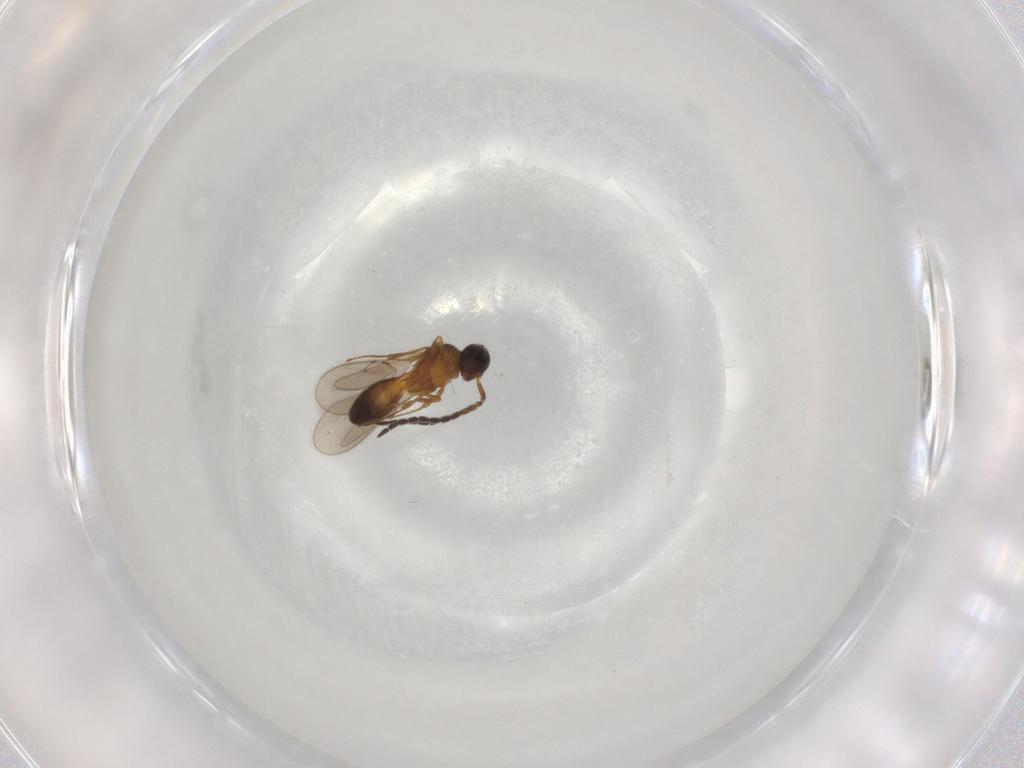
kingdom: Animalia
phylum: Arthropoda
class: Insecta
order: Hymenoptera
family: Scelionidae
